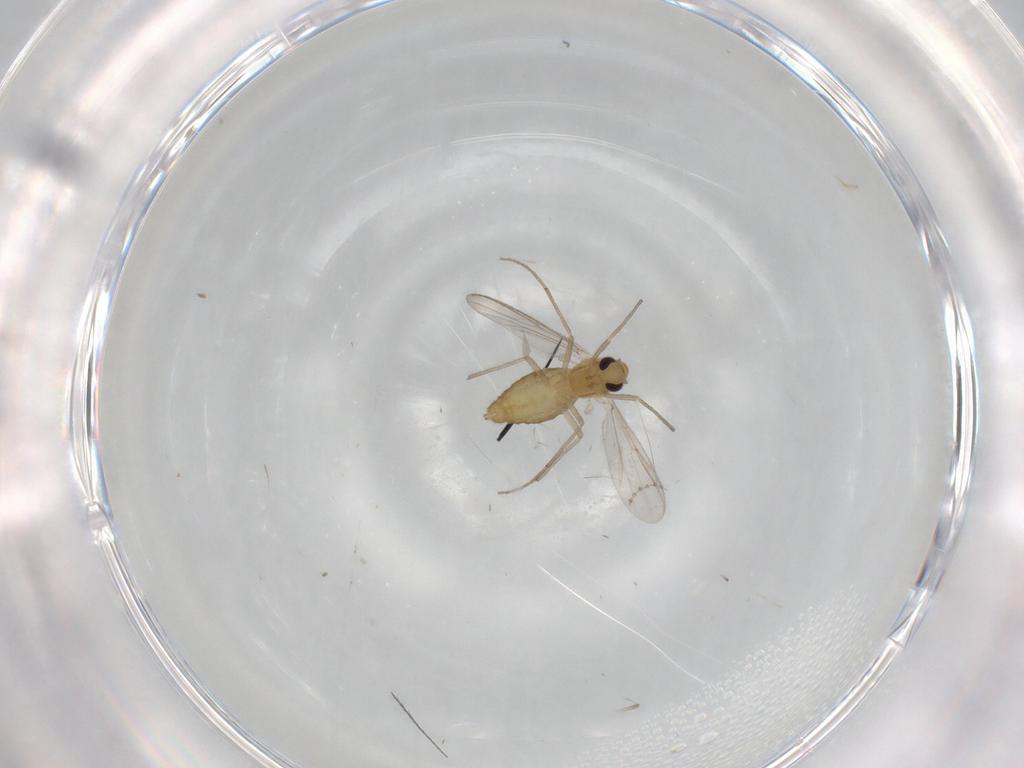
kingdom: Animalia
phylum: Arthropoda
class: Insecta
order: Diptera
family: Chironomidae
